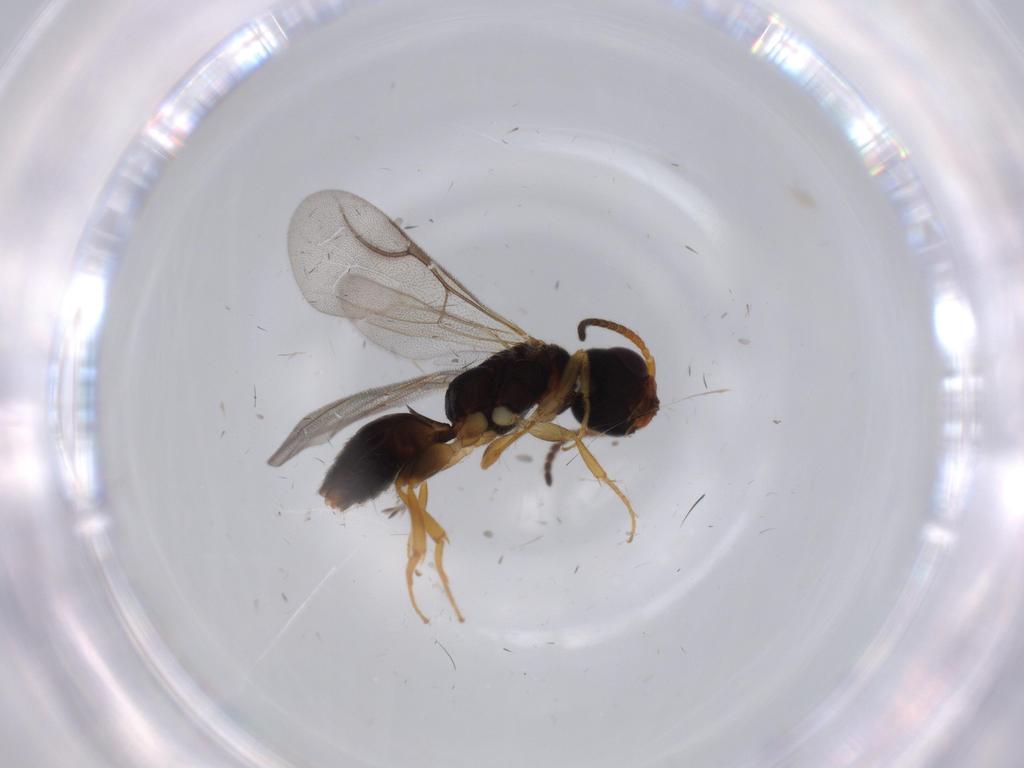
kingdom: Animalia
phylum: Arthropoda
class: Insecta
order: Hymenoptera
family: Bethylidae
